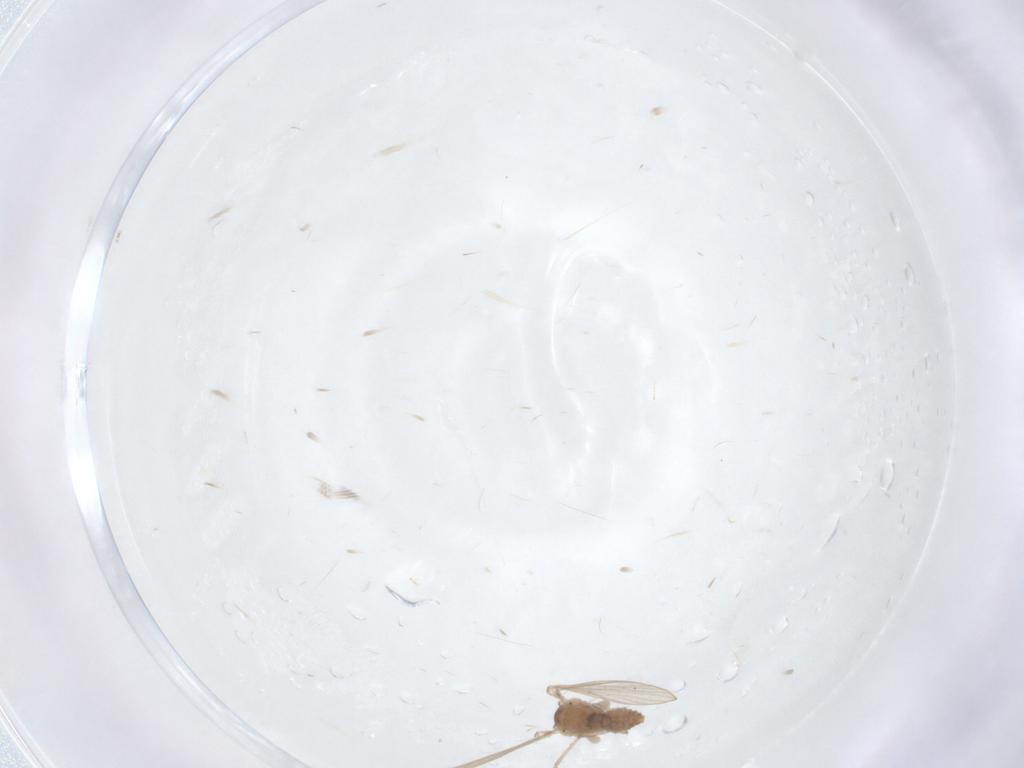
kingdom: Animalia
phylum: Arthropoda
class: Insecta
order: Diptera
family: Psychodidae
